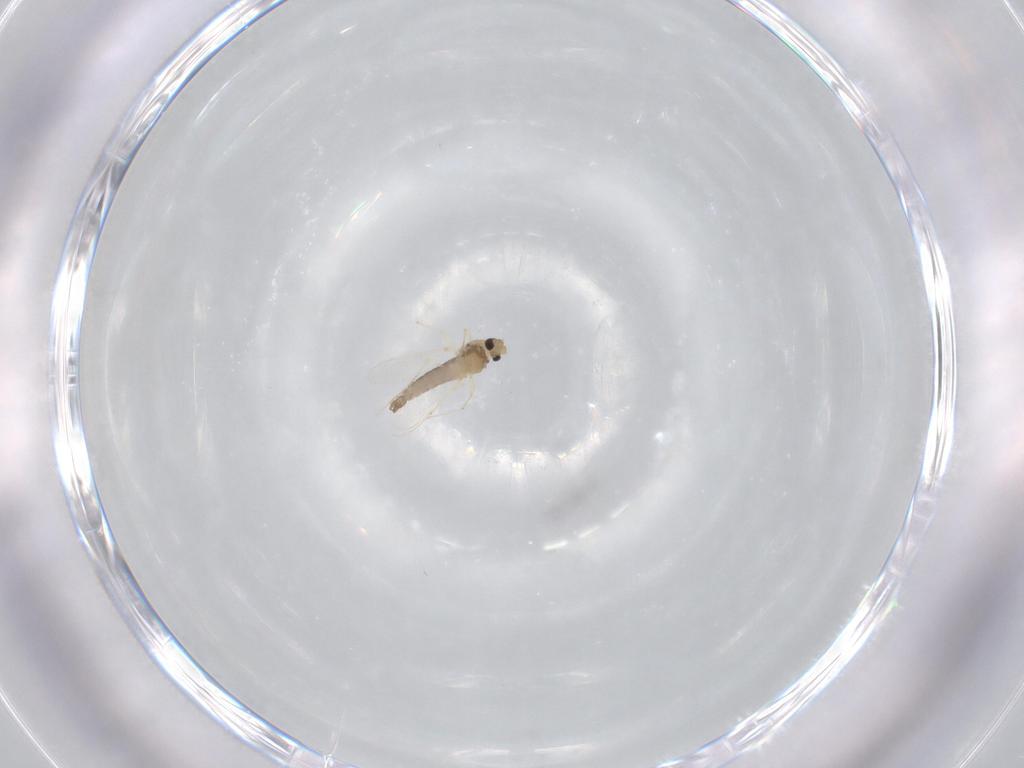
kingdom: Animalia
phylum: Arthropoda
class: Insecta
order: Diptera
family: Chironomidae
